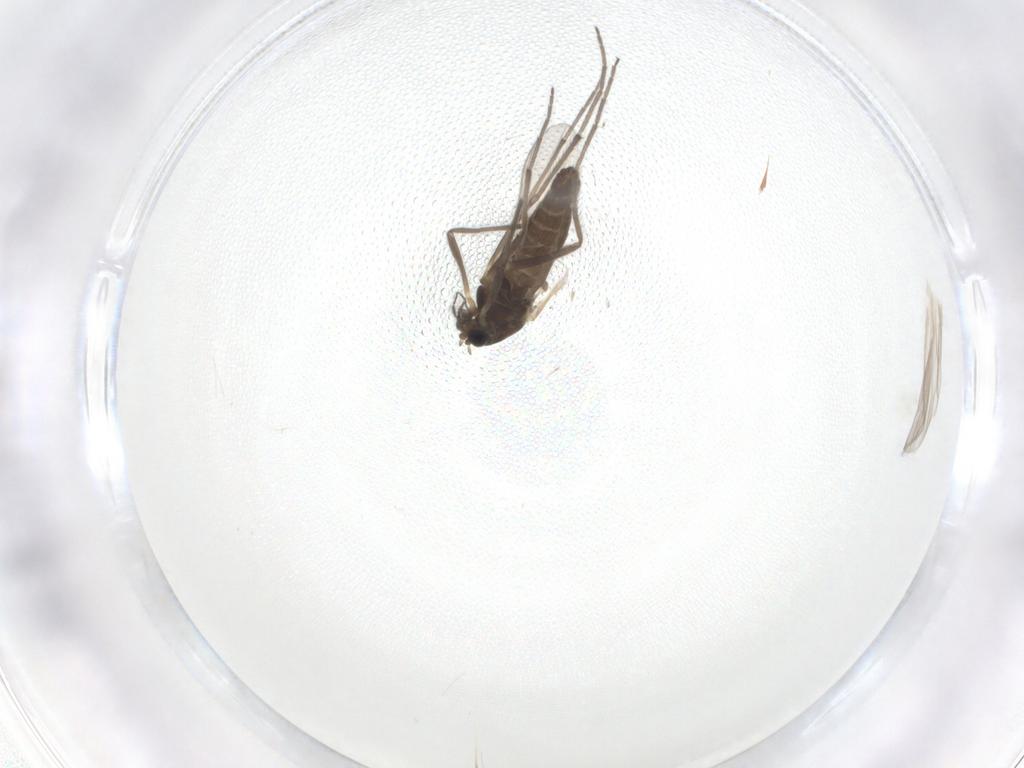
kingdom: Animalia
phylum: Arthropoda
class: Insecta
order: Diptera
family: Chironomidae
